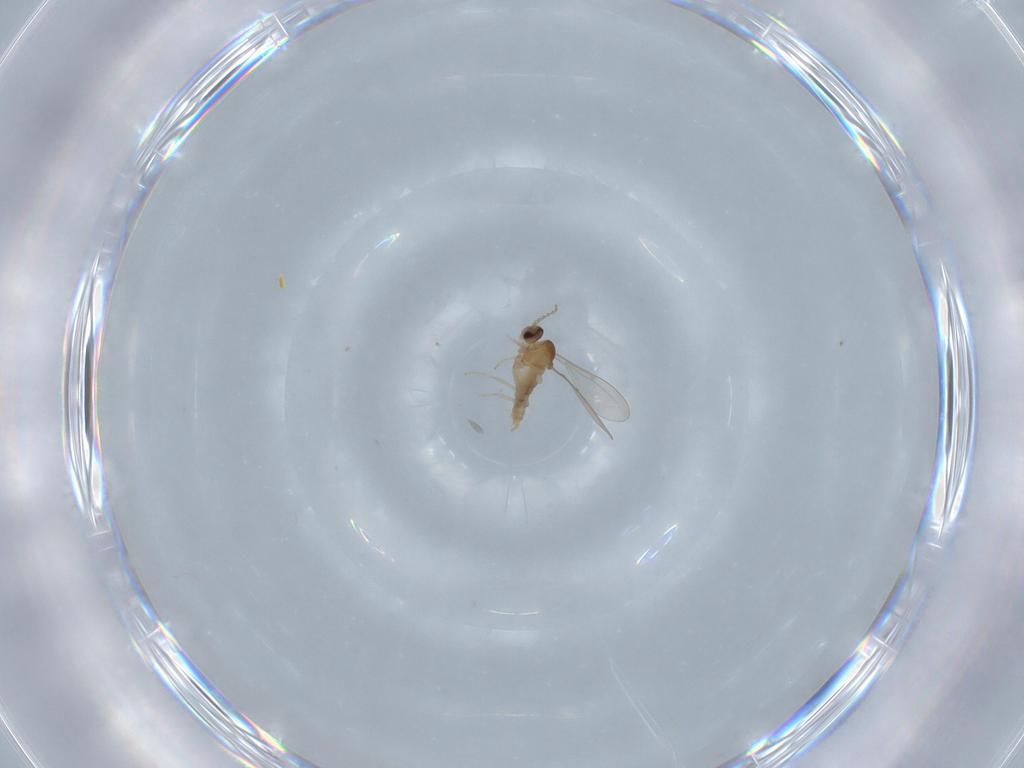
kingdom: Animalia
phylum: Arthropoda
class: Insecta
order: Diptera
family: Cecidomyiidae
